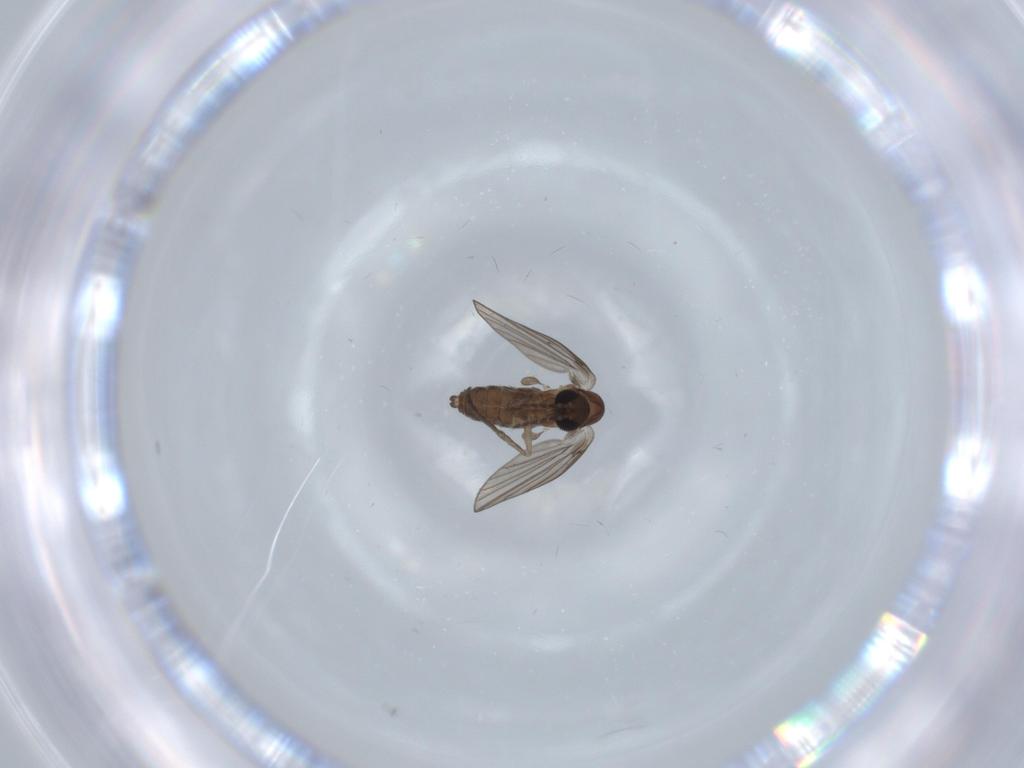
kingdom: Animalia
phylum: Arthropoda
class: Insecta
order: Diptera
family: Psychodidae
